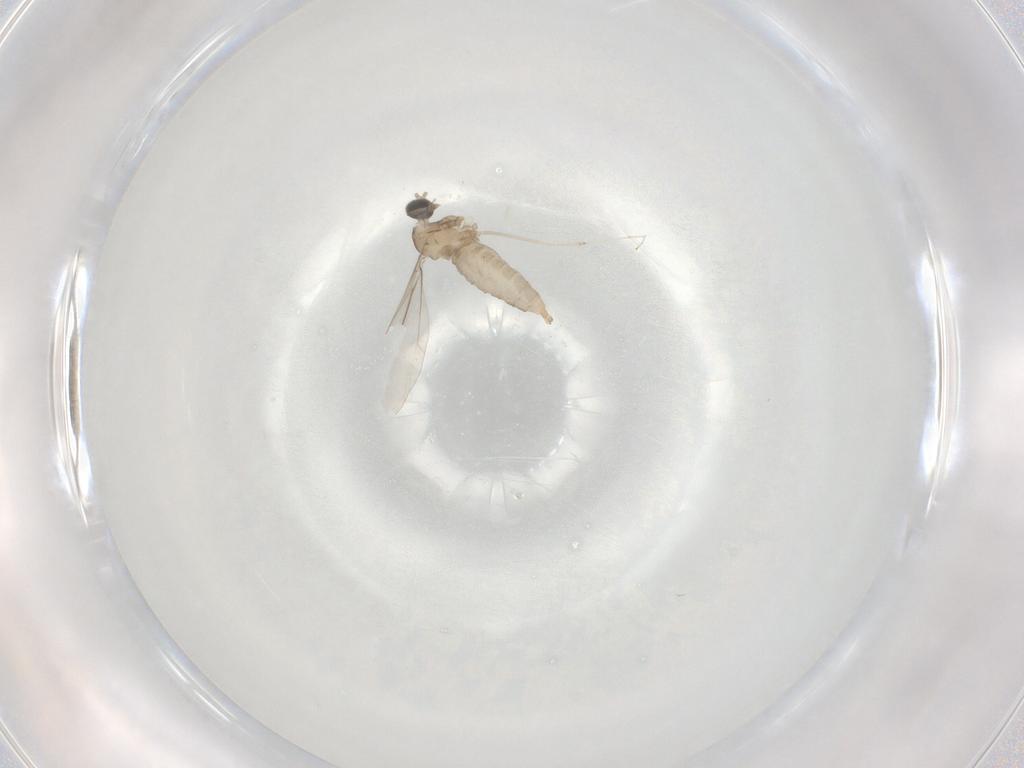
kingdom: Animalia
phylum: Arthropoda
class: Insecta
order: Diptera
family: Cecidomyiidae
